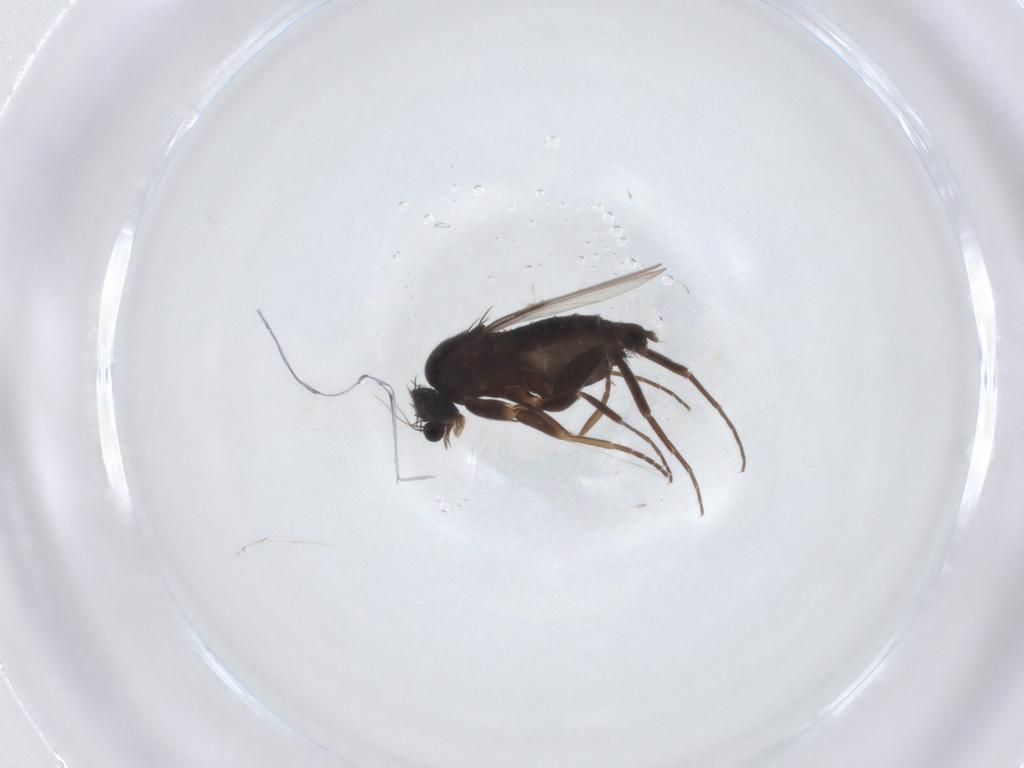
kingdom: Animalia
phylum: Arthropoda
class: Insecta
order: Diptera
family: Phoridae
